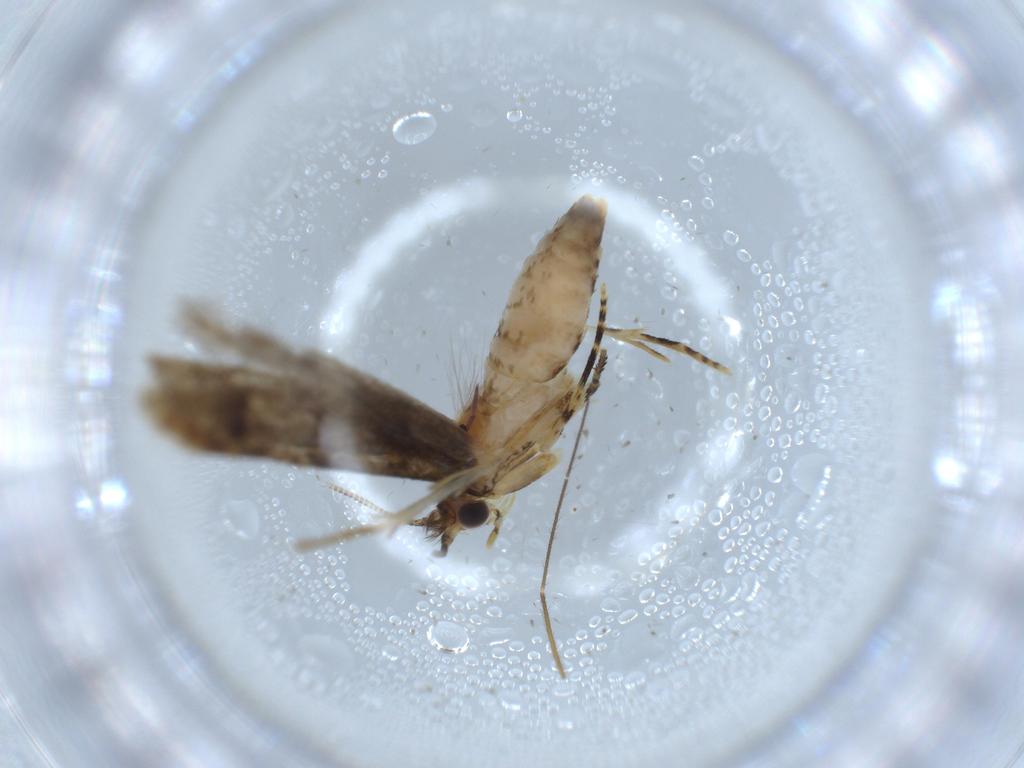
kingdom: Animalia
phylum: Arthropoda
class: Insecta
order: Lepidoptera
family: Tineidae
